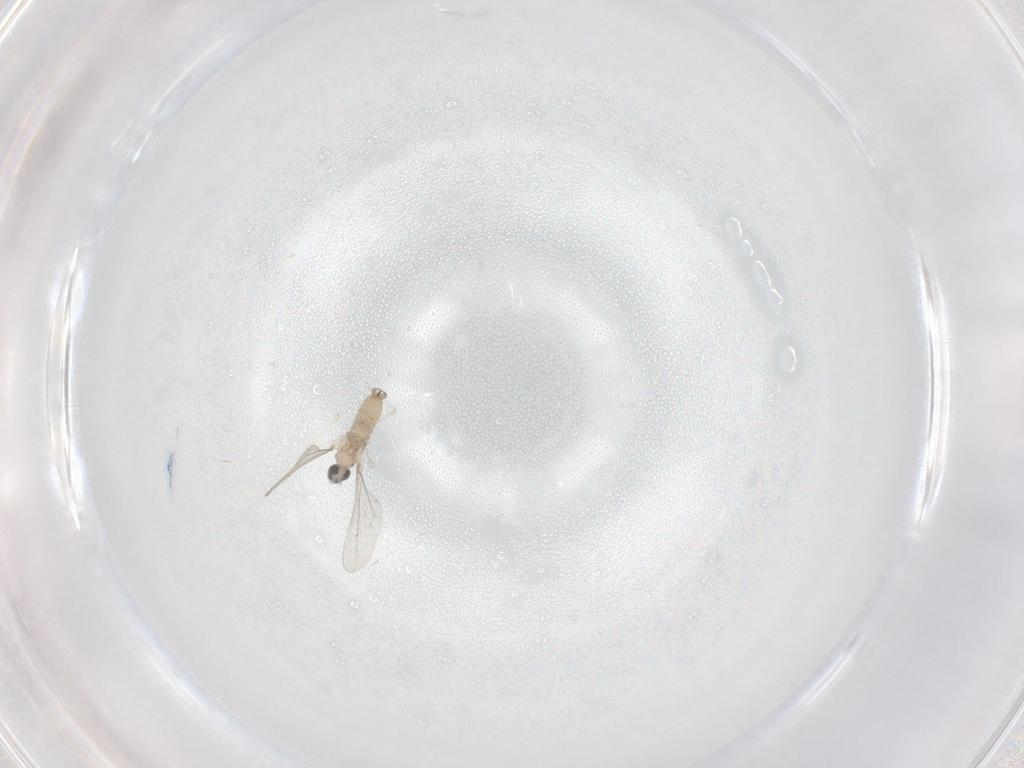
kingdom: Animalia
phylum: Arthropoda
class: Insecta
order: Diptera
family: Cecidomyiidae
